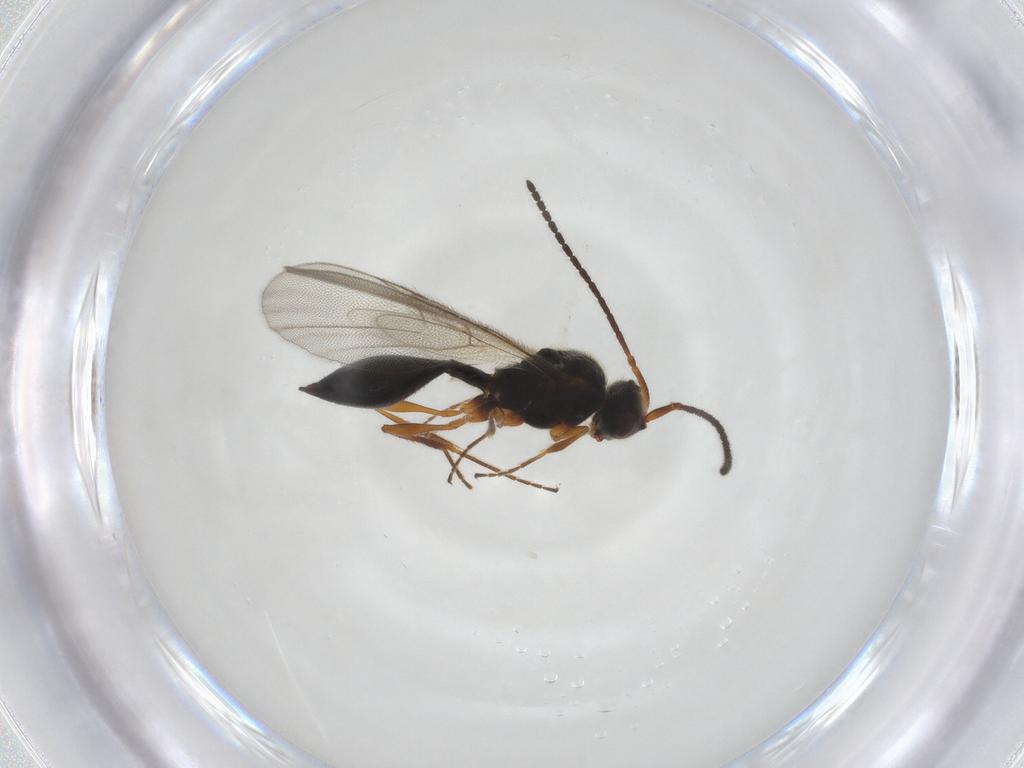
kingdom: Animalia
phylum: Arthropoda
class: Insecta
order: Hymenoptera
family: Diapriidae
